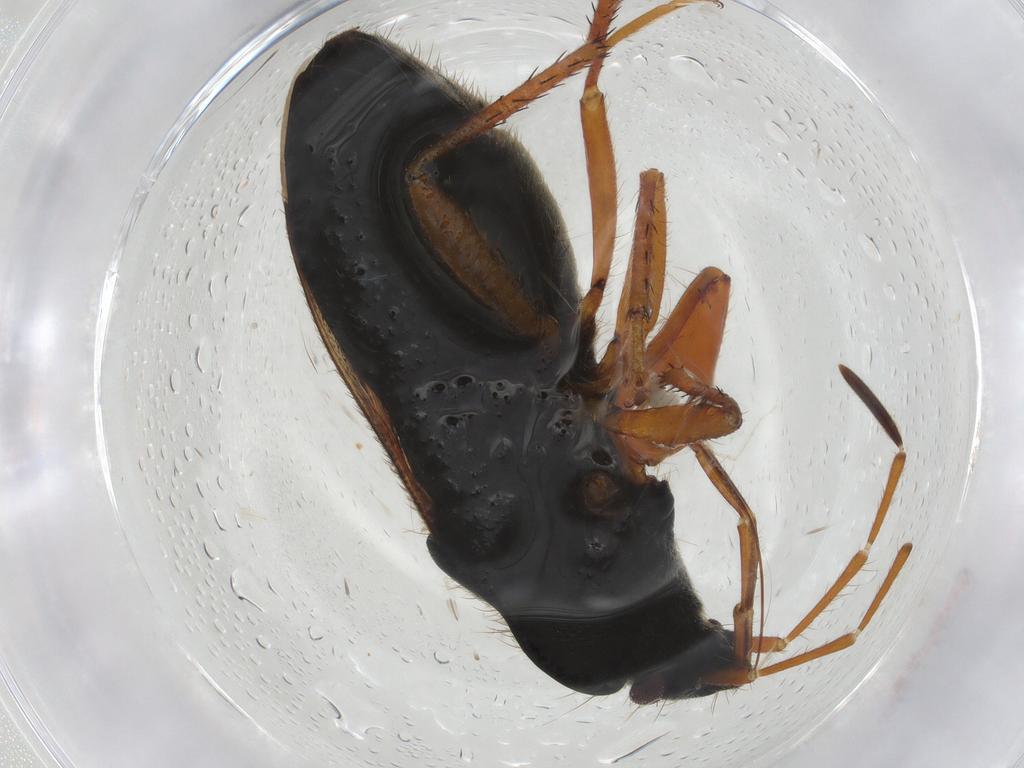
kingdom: Animalia
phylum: Arthropoda
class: Insecta
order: Hemiptera
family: Rhyparochromidae
